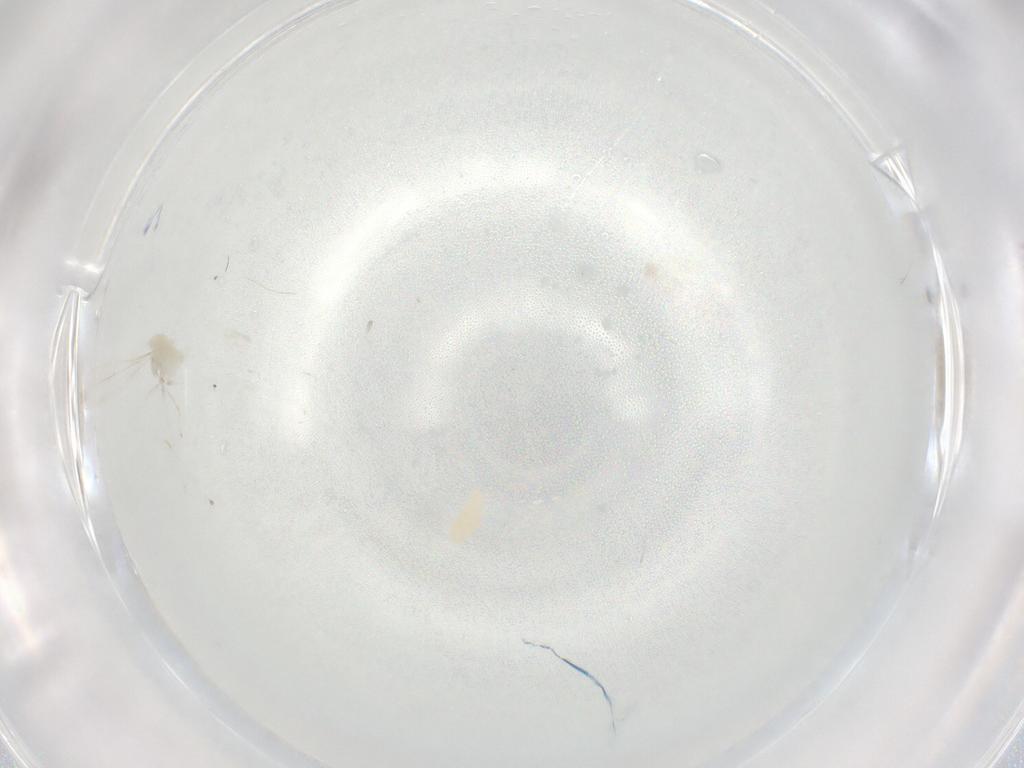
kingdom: Animalia
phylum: Arthropoda
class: Insecta
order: Diptera
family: Cecidomyiidae
